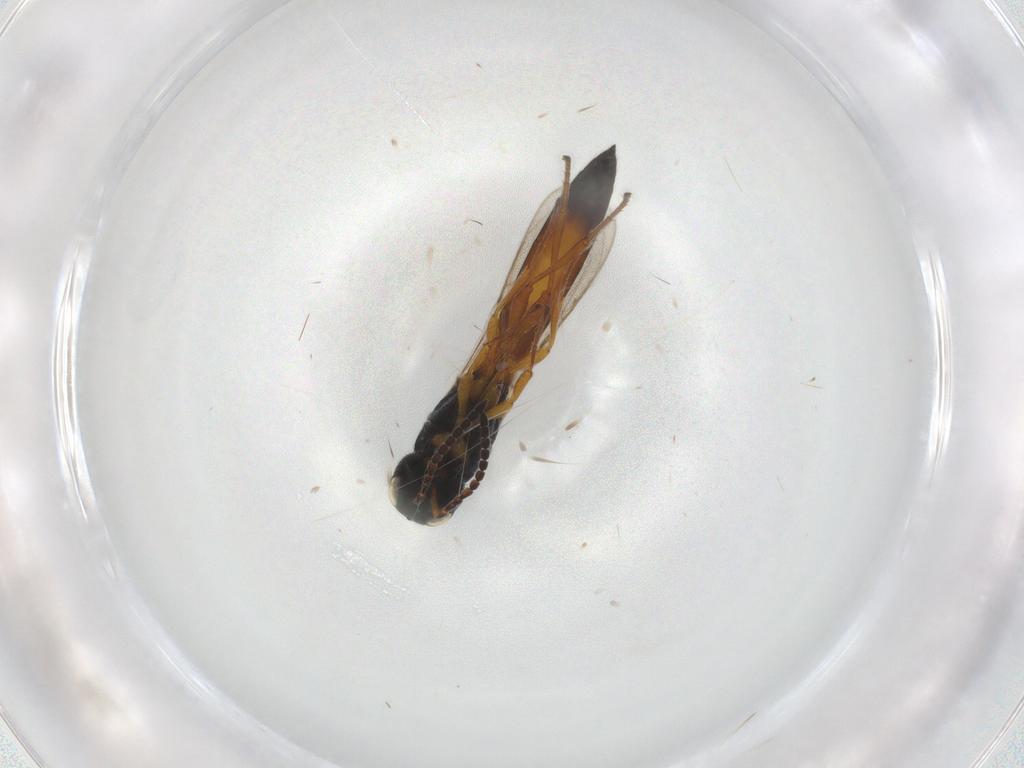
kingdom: Animalia
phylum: Arthropoda
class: Insecta
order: Hymenoptera
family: Scelionidae
